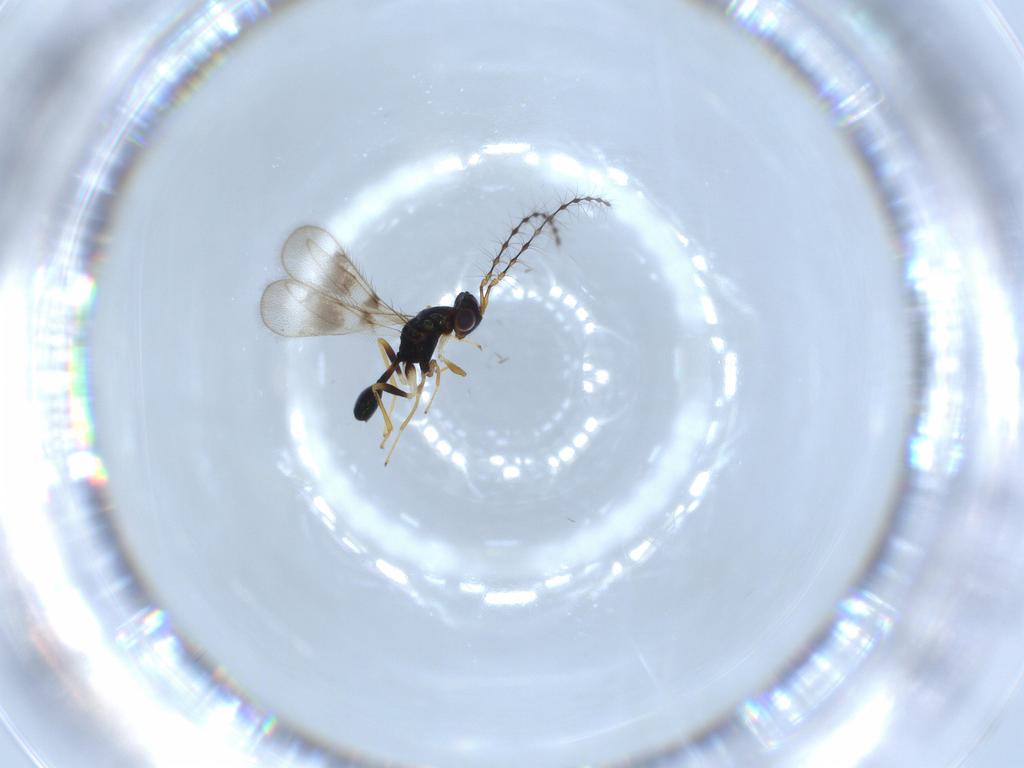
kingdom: Animalia
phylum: Arthropoda
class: Insecta
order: Hymenoptera
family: Diparidae
